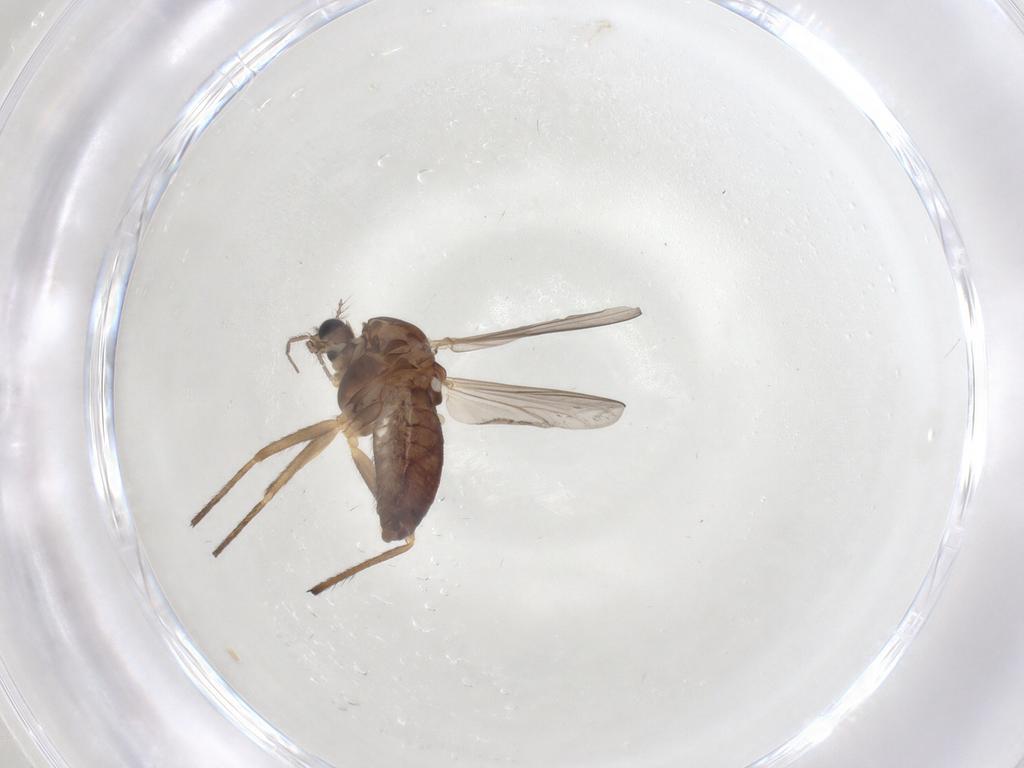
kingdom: Animalia
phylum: Arthropoda
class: Insecta
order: Diptera
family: Chironomidae
